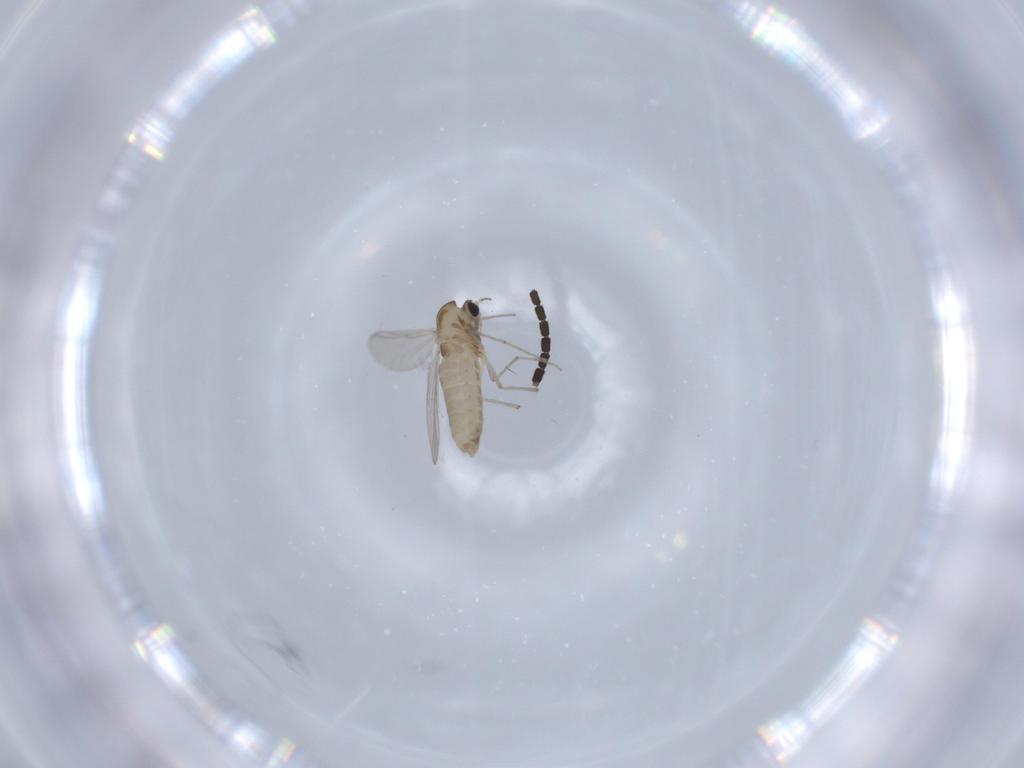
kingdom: Animalia
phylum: Arthropoda
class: Insecta
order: Diptera
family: Chironomidae
